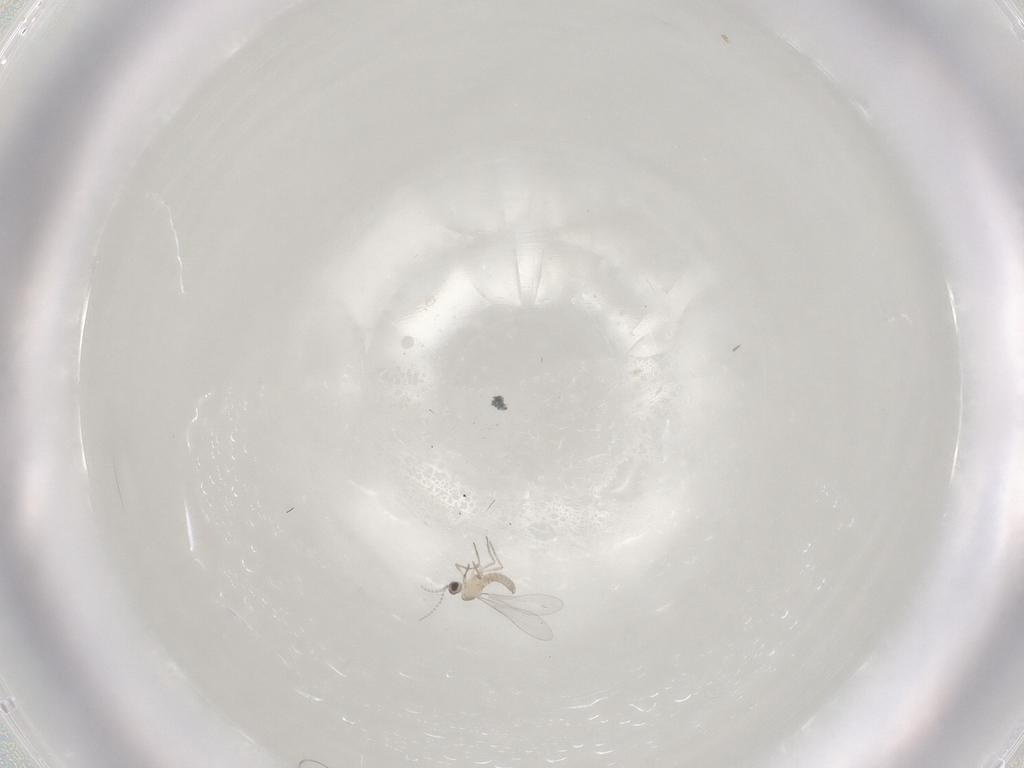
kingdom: Animalia
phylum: Arthropoda
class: Insecta
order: Diptera
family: Cecidomyiidae
